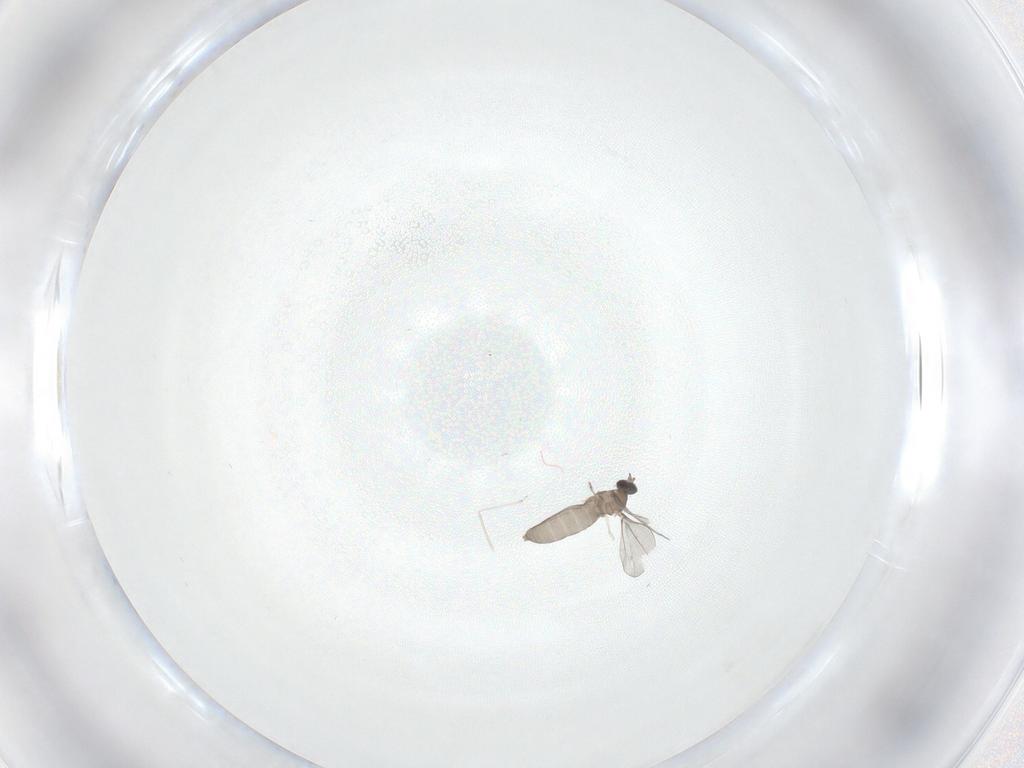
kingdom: Animalia
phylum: Arthropoda
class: Insecta
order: Diptera
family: Cecidomyiidae
